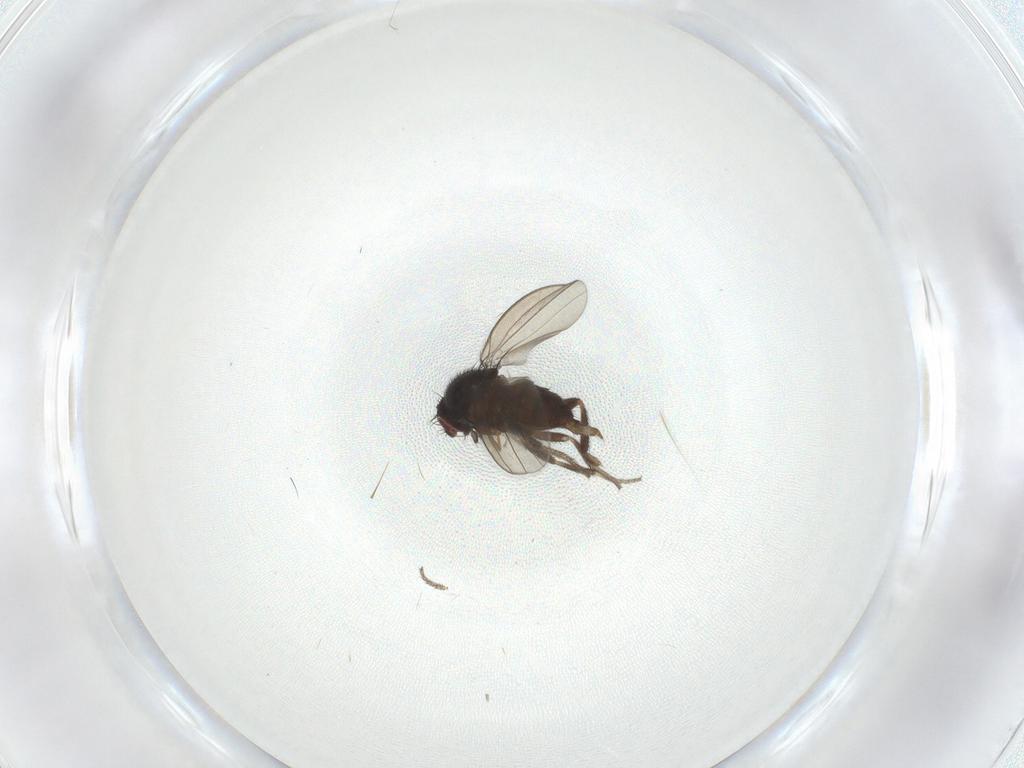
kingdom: Animalia
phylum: Arthropoda
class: Insecta
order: Diptera
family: Milichiidae
